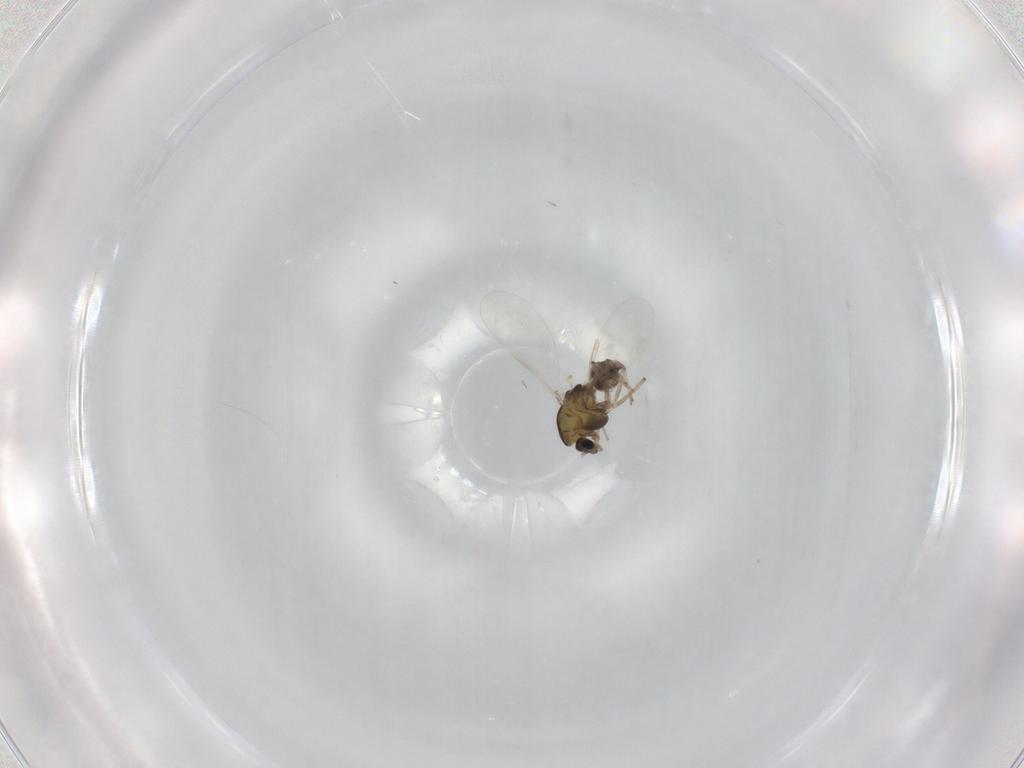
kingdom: Animalia
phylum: Arthropoda
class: Insecta
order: Diptera
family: Chironomidae
